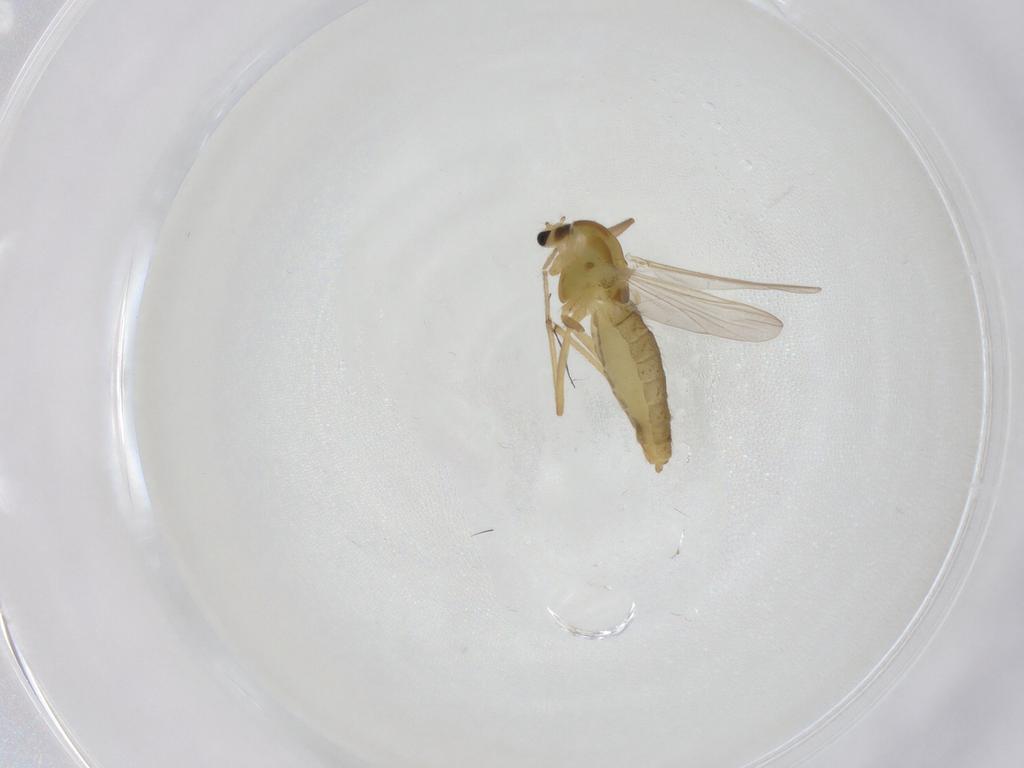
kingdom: Animalia
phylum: Arthropoda
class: Insecta
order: Diptera
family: Chironomidae
